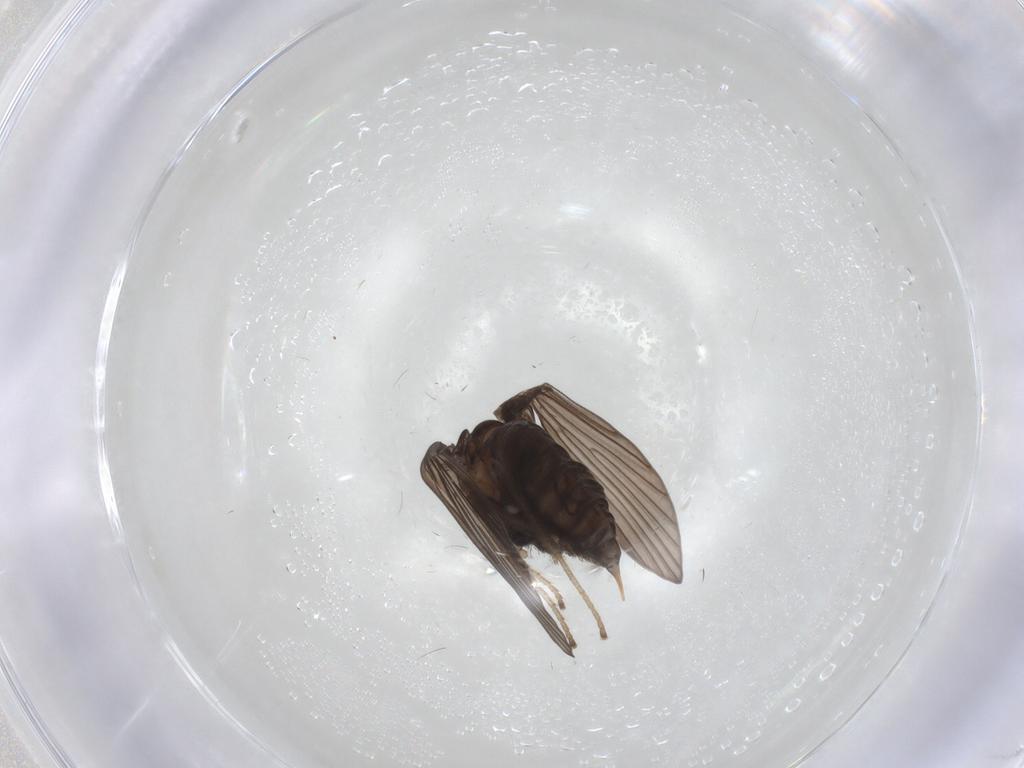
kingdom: Animalia
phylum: Arthropoda
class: Insecta
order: Diptera
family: Psychodidae
